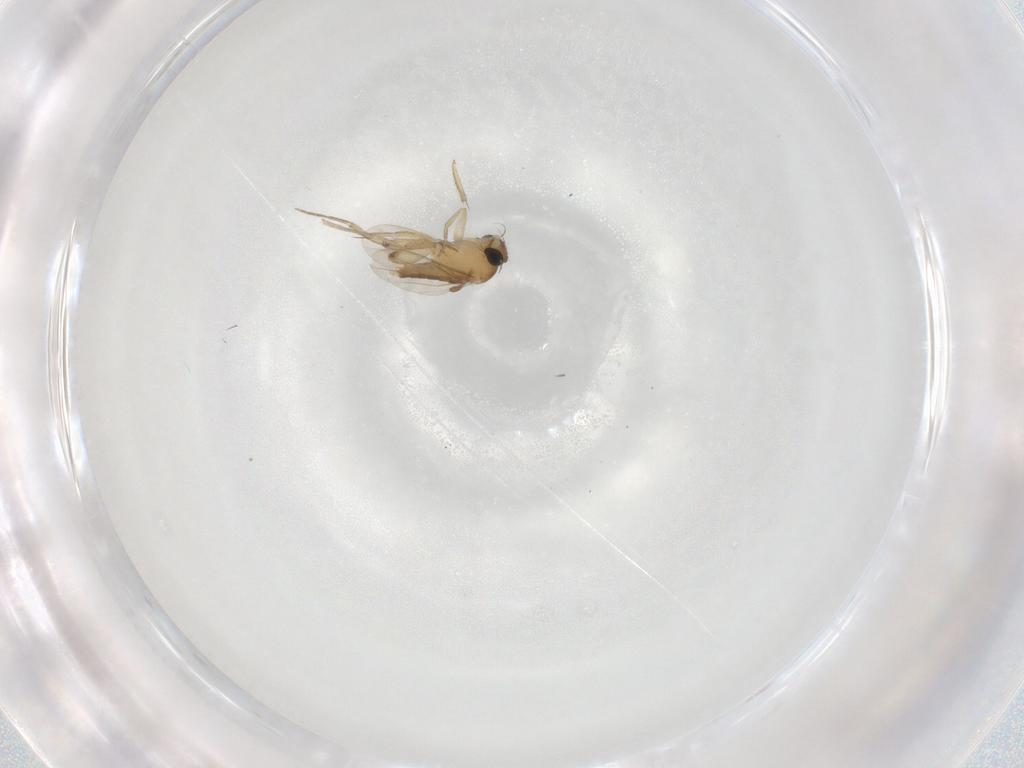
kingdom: Animalia
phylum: Arthropoda
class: Insecta
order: Diptera
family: Phoridae
